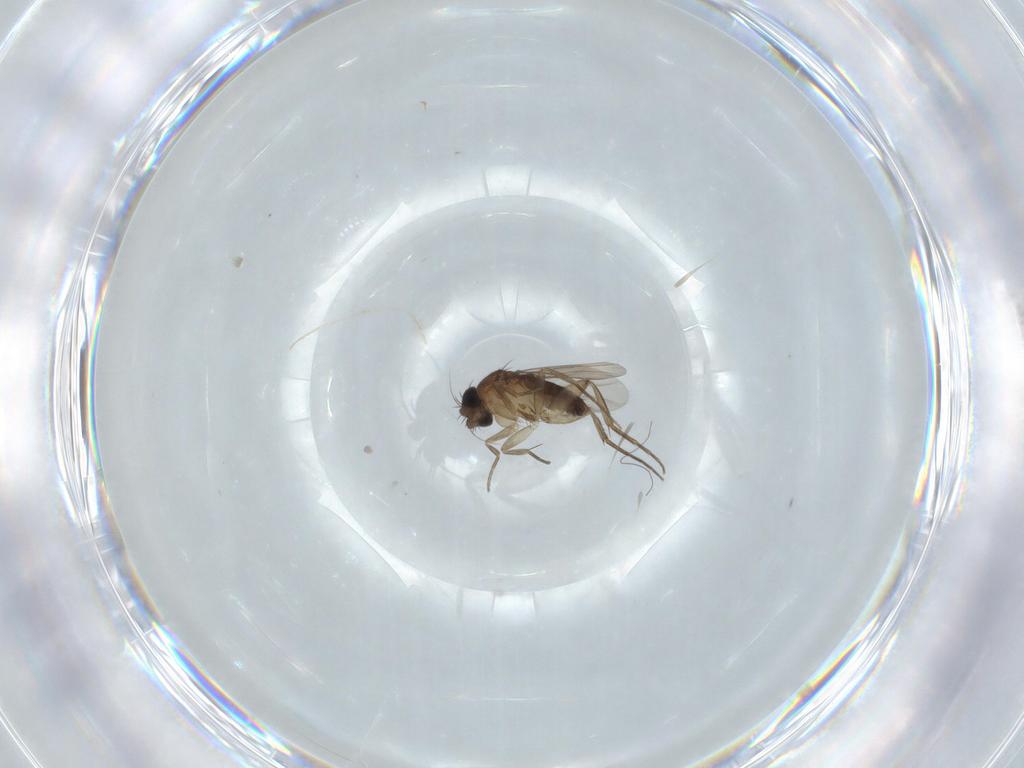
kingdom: Animalia
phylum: Arthropoda
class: Insecta
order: Diptera
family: Phoridae
